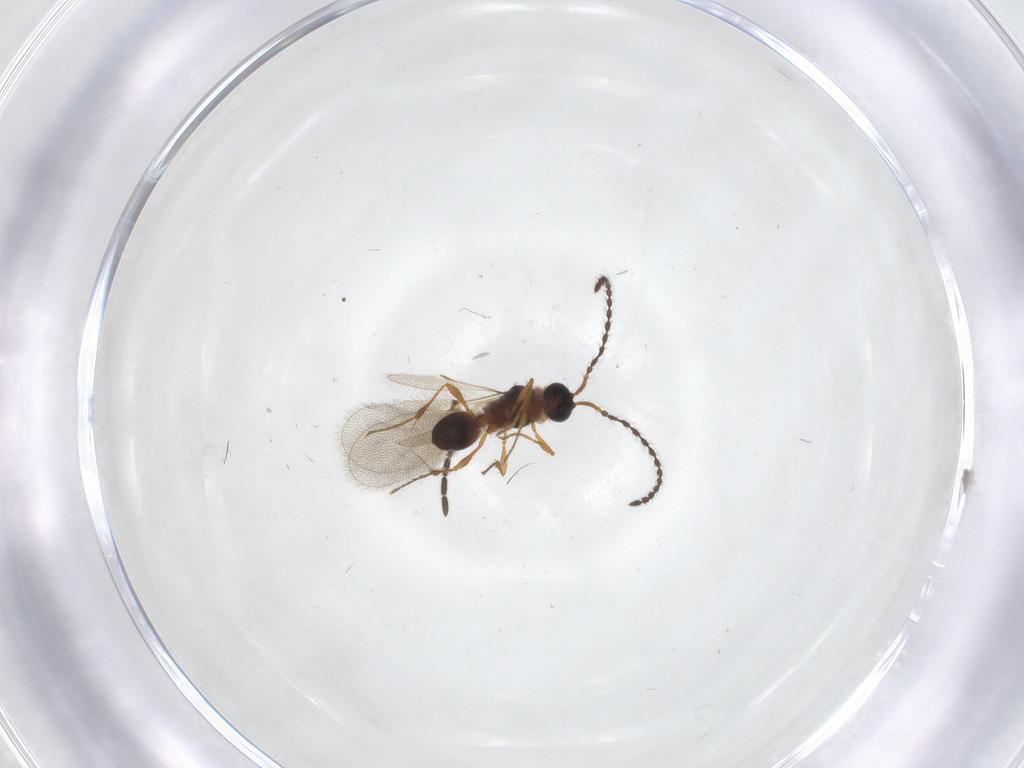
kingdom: Animalia
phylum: Arthropoda
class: Insecta
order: Hymenoptera
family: Diapriidae
